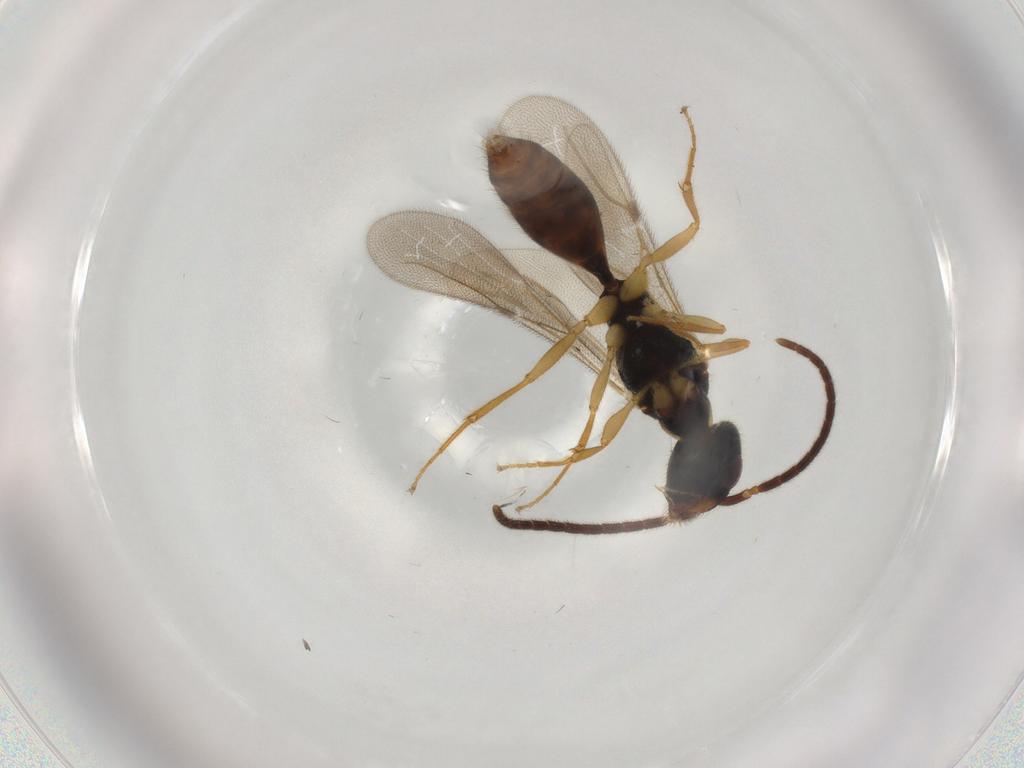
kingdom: Animalia
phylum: Arthropoda
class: Insecta
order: Hymenoptera
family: Bethylidae
